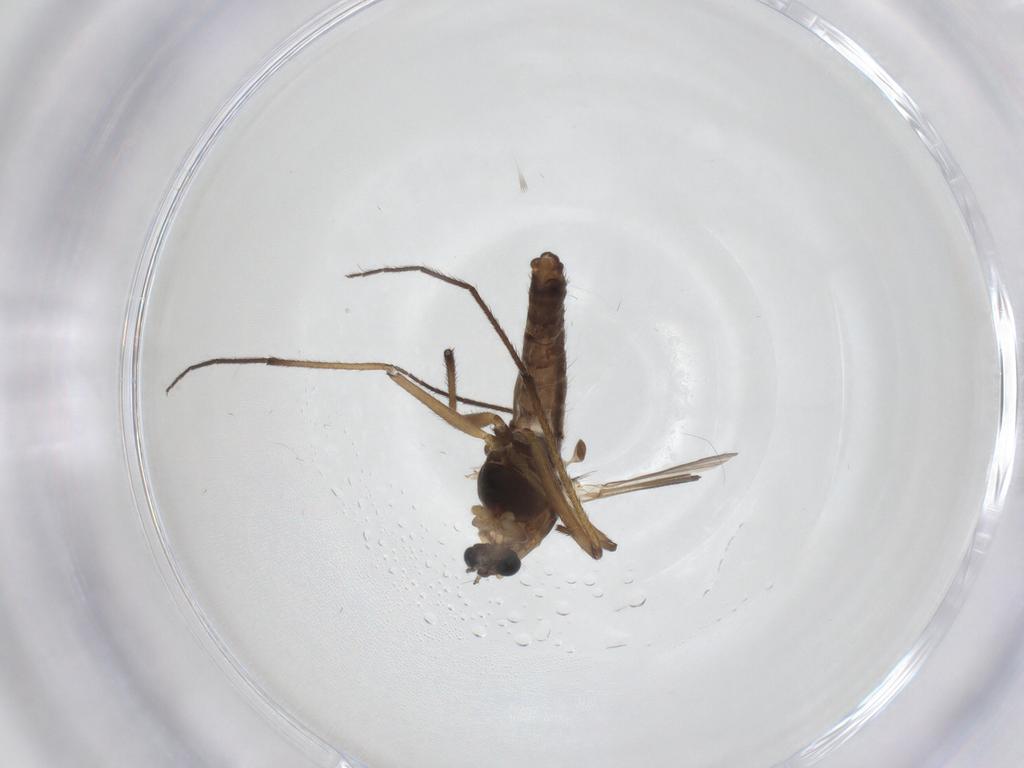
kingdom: Animalia
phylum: Arthropoda
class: Insecta
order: Diptera
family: Chironomidae
